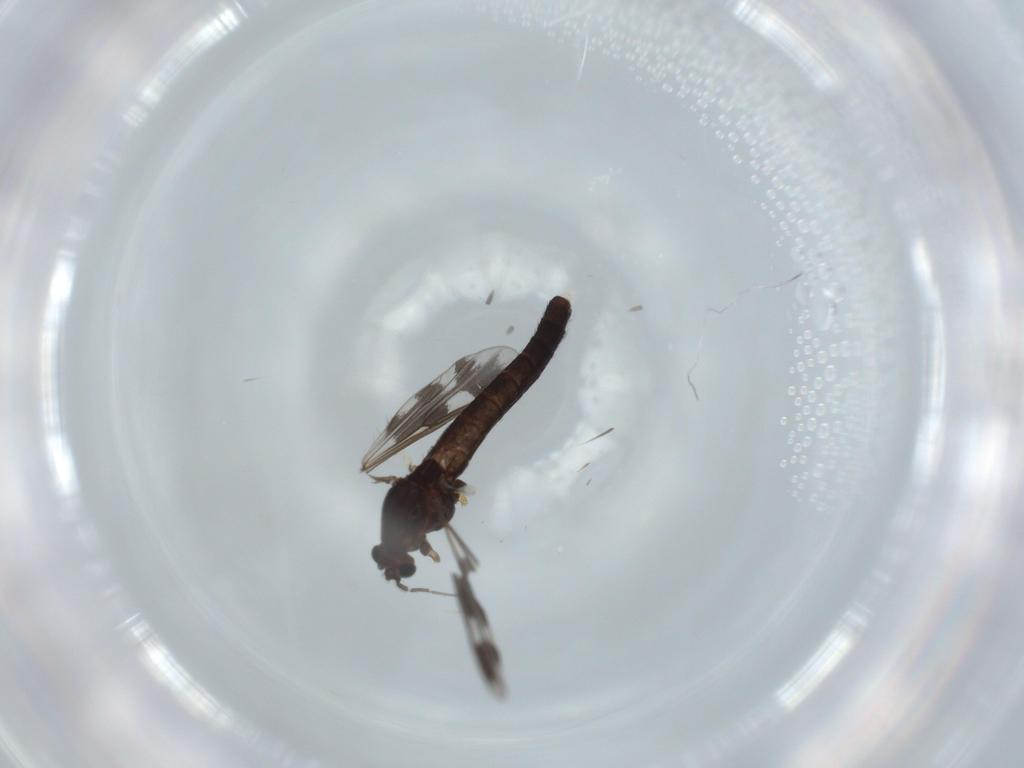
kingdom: Animalia
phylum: Arthropoda
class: Insecta
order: Diptera
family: Chironomidae
